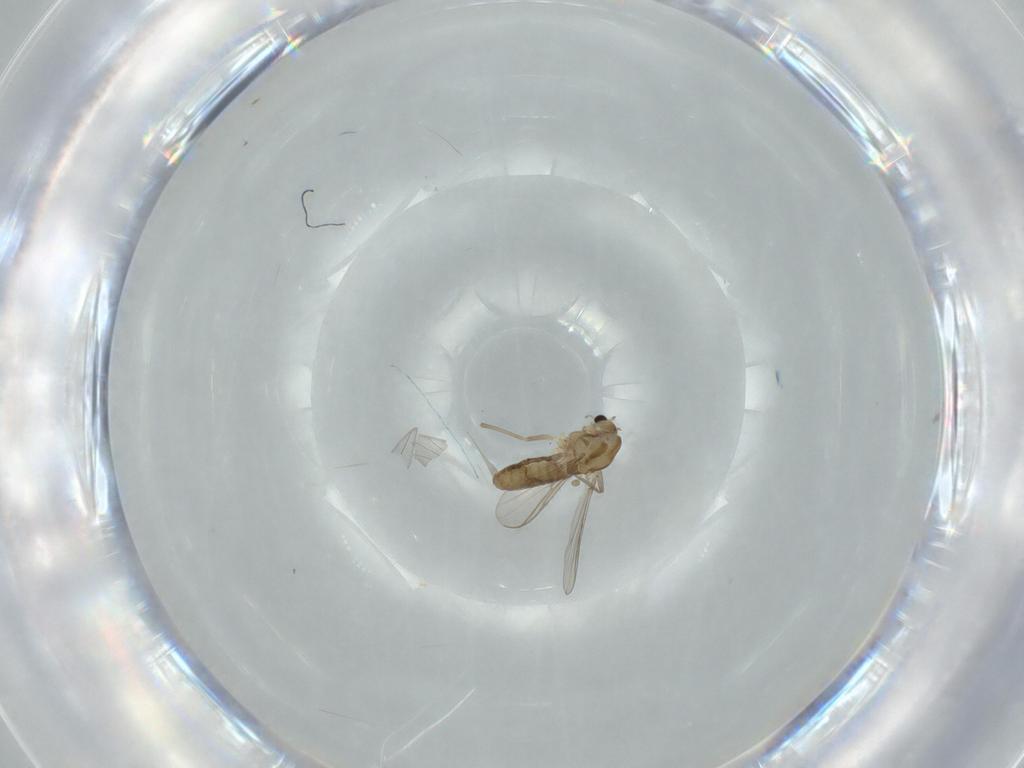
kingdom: Animalia
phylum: Arthropoda
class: Insecta
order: Diptera
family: Chironomidae
